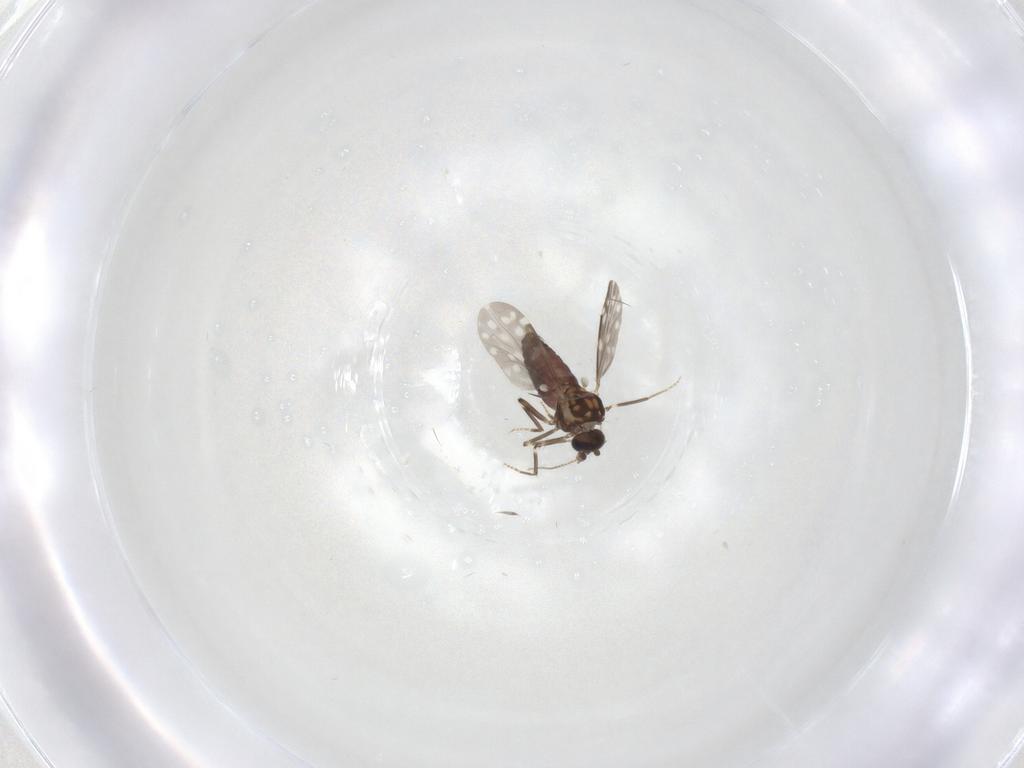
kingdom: Animalia
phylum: Arthropoda
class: Insecta
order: Diptera
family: Ceratopogonidae
